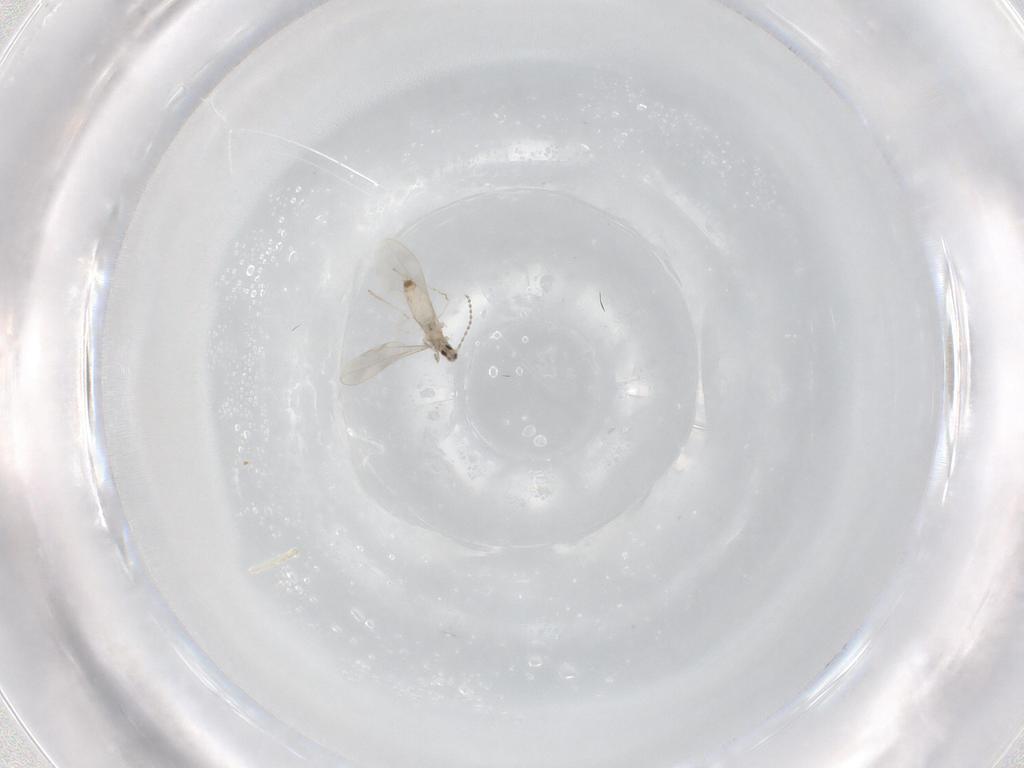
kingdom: Animalia
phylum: Arthropoda
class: Insecta
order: Diptera
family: Cecidomyiidae
